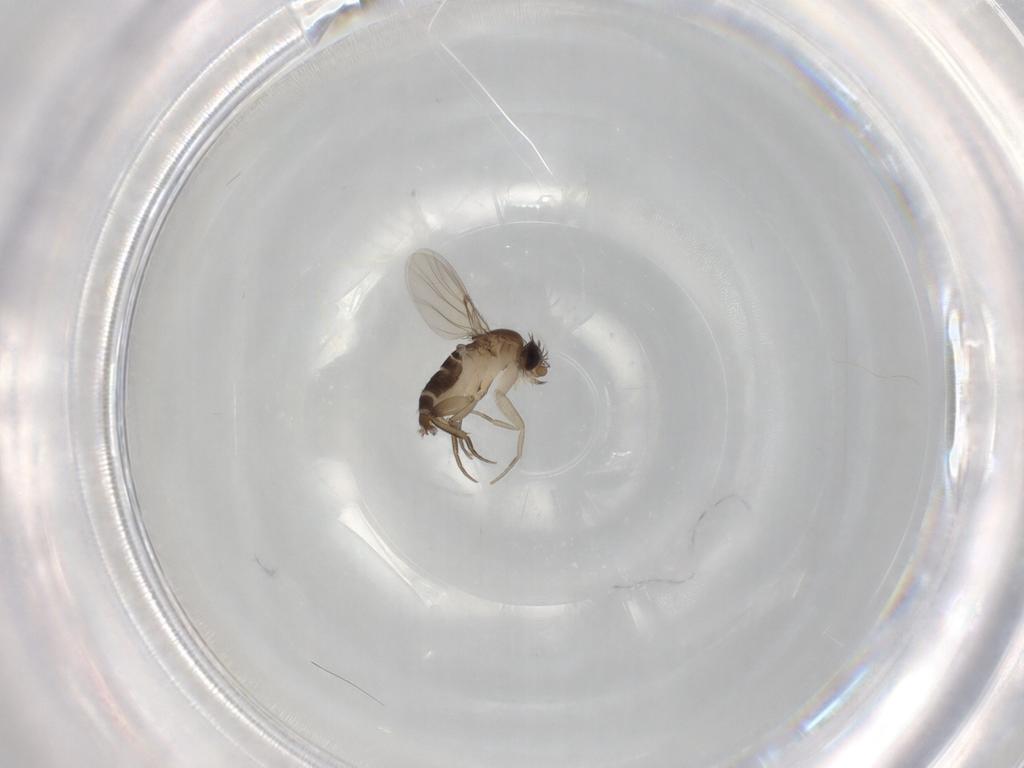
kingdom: Animalia
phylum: Arthropoda
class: Insecta
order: Diptera
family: Phoridae
